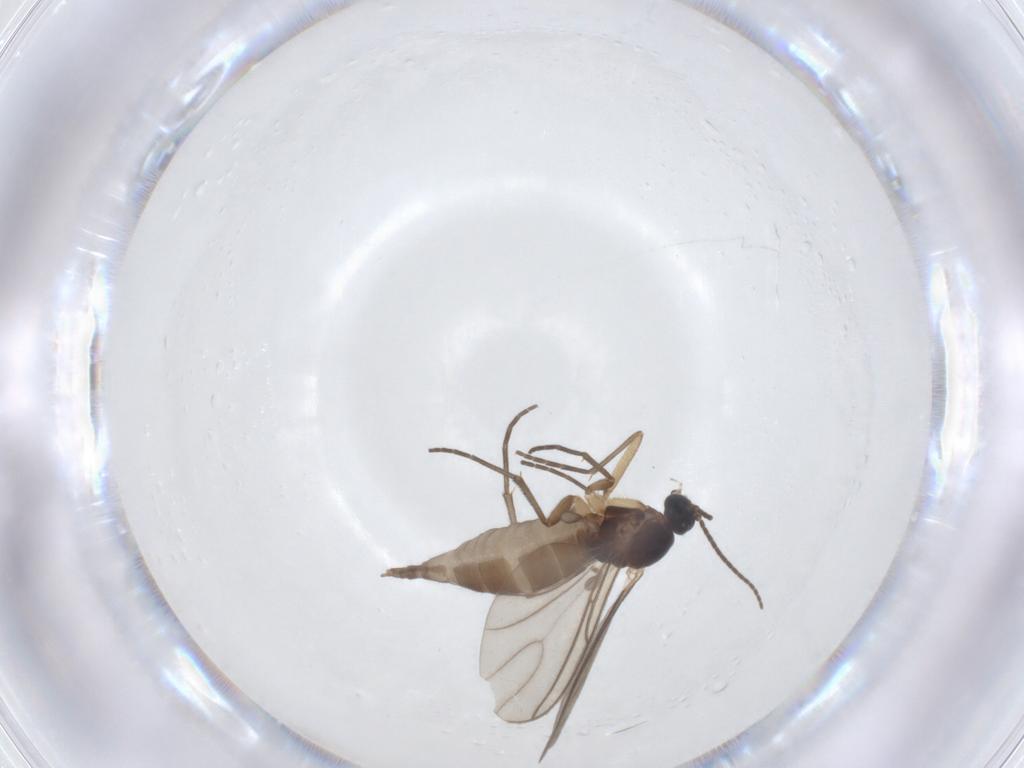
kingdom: Animalia
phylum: Arthropoda
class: Insecta
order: Diptera
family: Sciaridae
